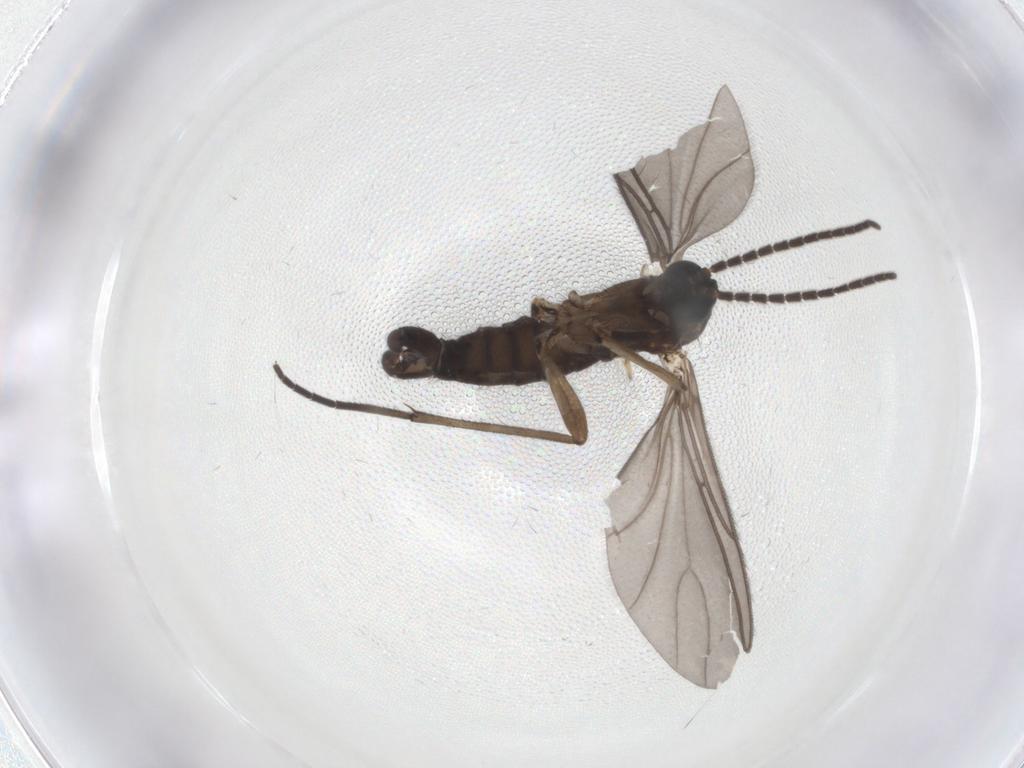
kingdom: Animalia
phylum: Arthropoda
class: Insecta
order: Diptera
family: Sciaridae
